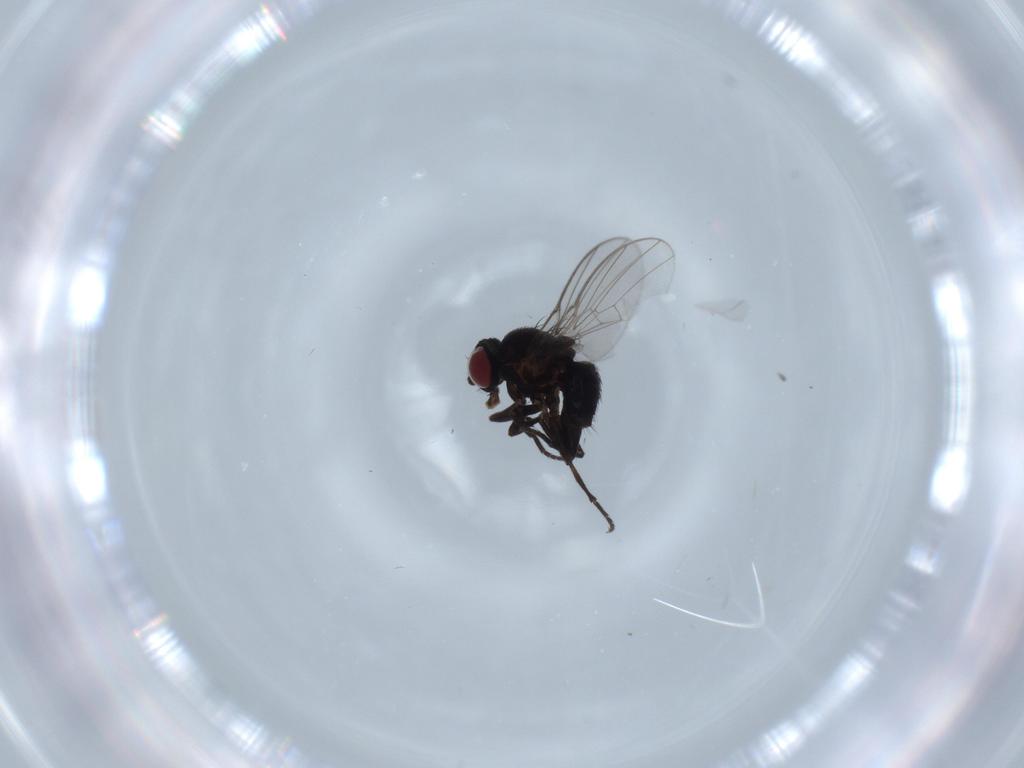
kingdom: Animalia
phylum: Arthropoda
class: Insecta
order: Diptera
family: Agromyzidae
